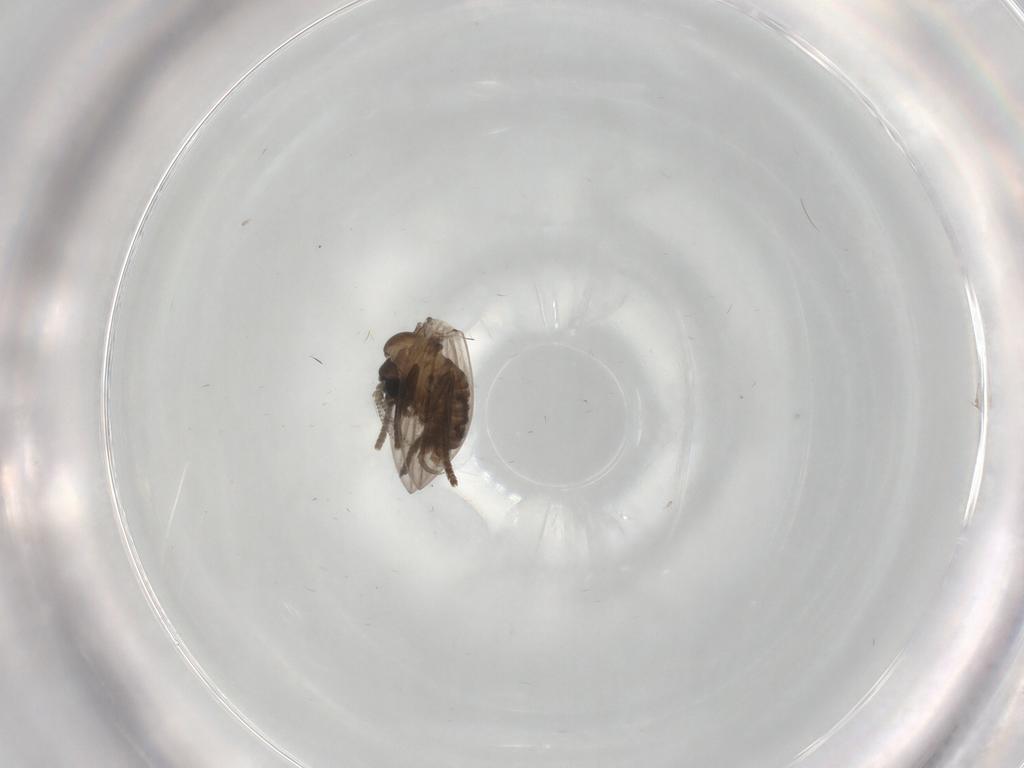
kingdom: Animalia
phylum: Arthropoda
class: Insecta
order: Diptera
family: Psychodidae
